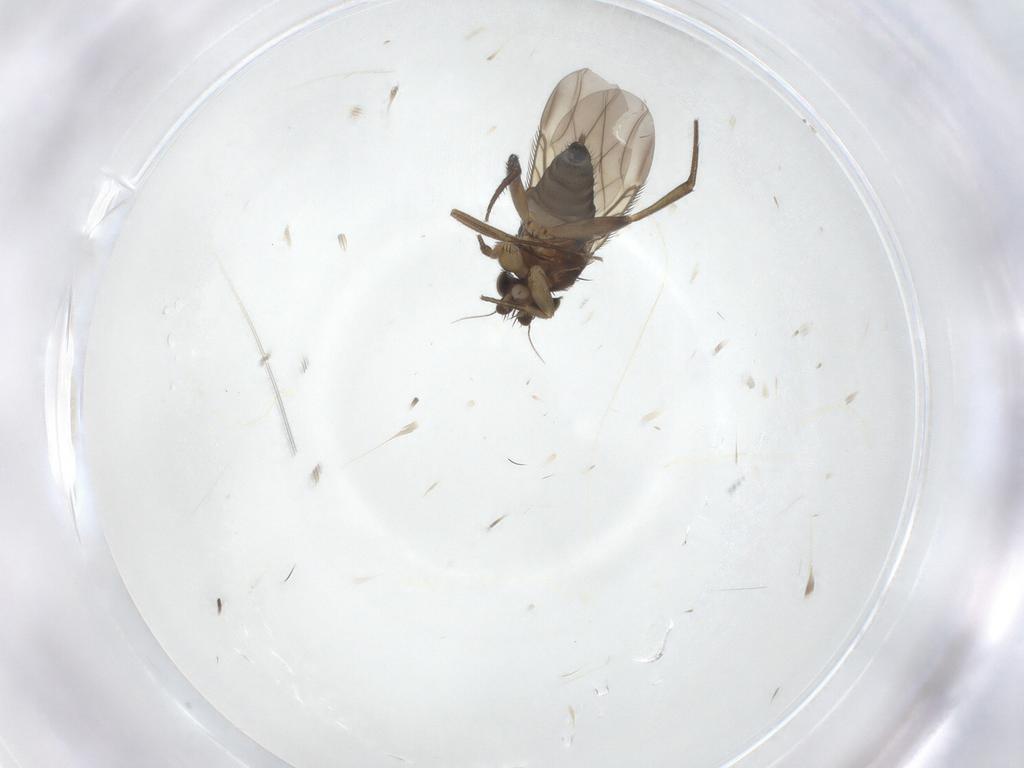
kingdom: Animalia
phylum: Arthropoda
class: Insecta
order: Diptera
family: Phoridae
